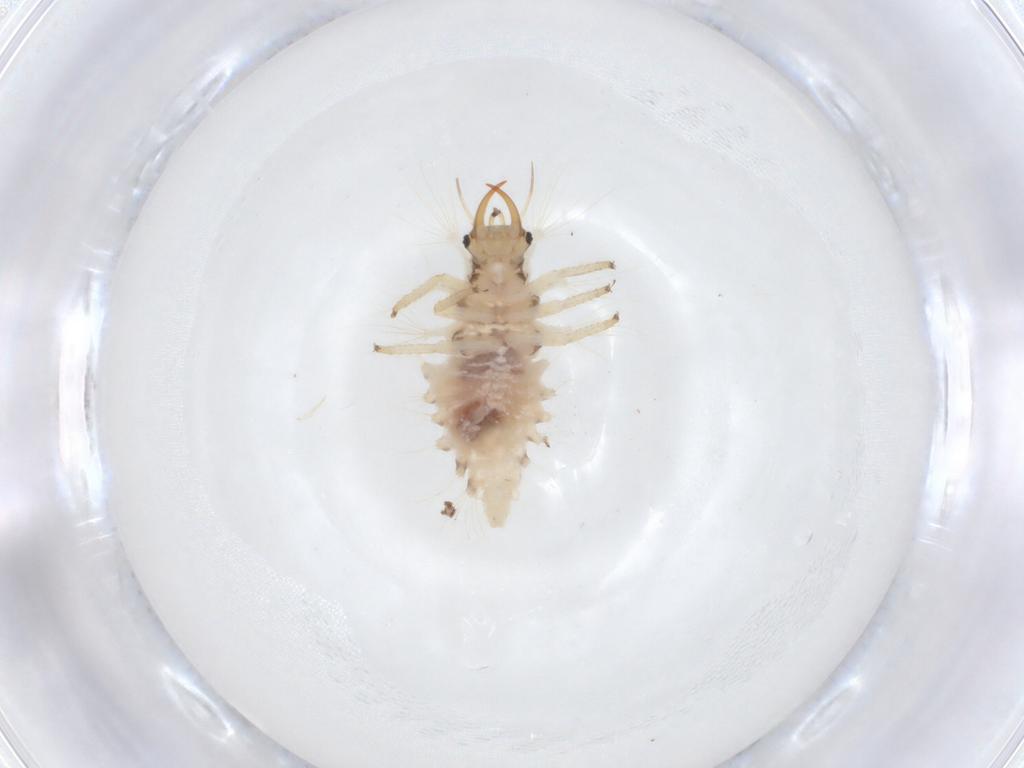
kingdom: Animalia
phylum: Arthropoda
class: Insecta
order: Neuroptera
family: Chrysopidae
